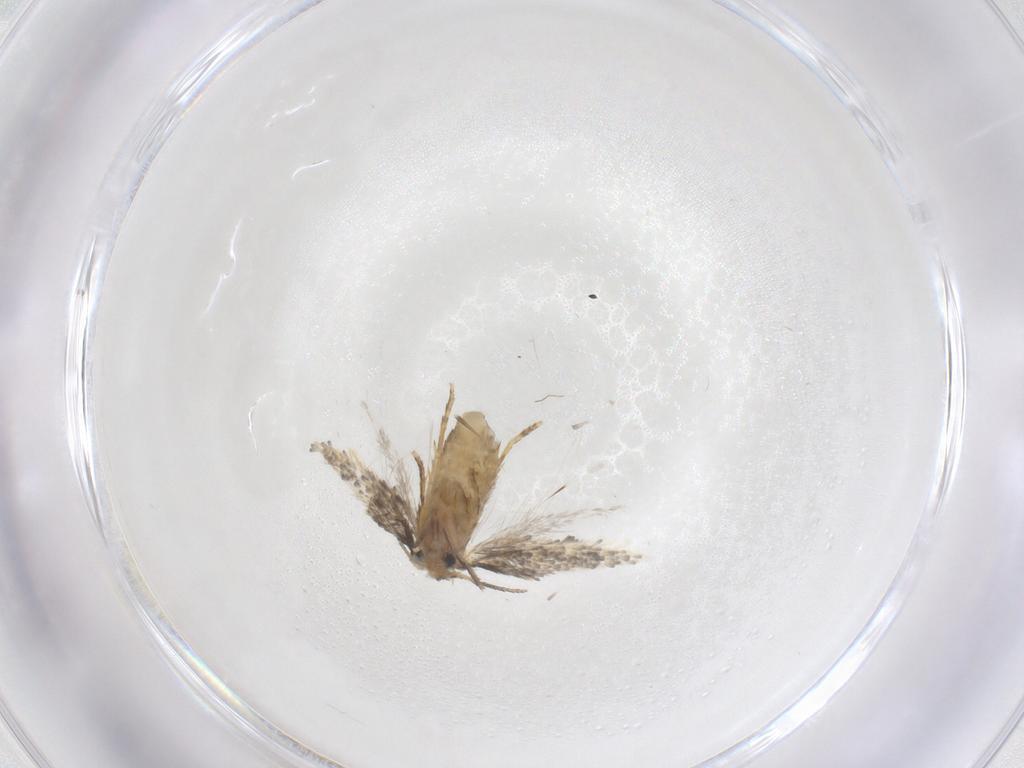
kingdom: Animalia
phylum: Arthropoda
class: Insecta
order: Lepidoptera
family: Nepticulidae
